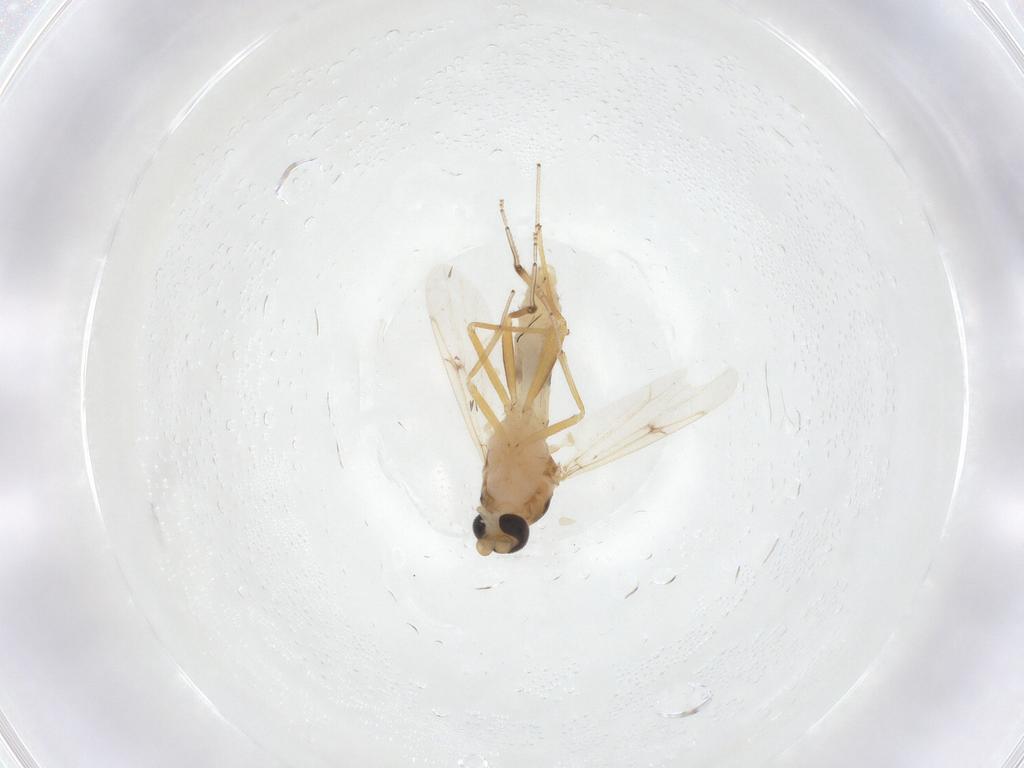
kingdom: Animalia
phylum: Arthropoda
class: Insecta
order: Diptera
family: Ceratopogonidae
